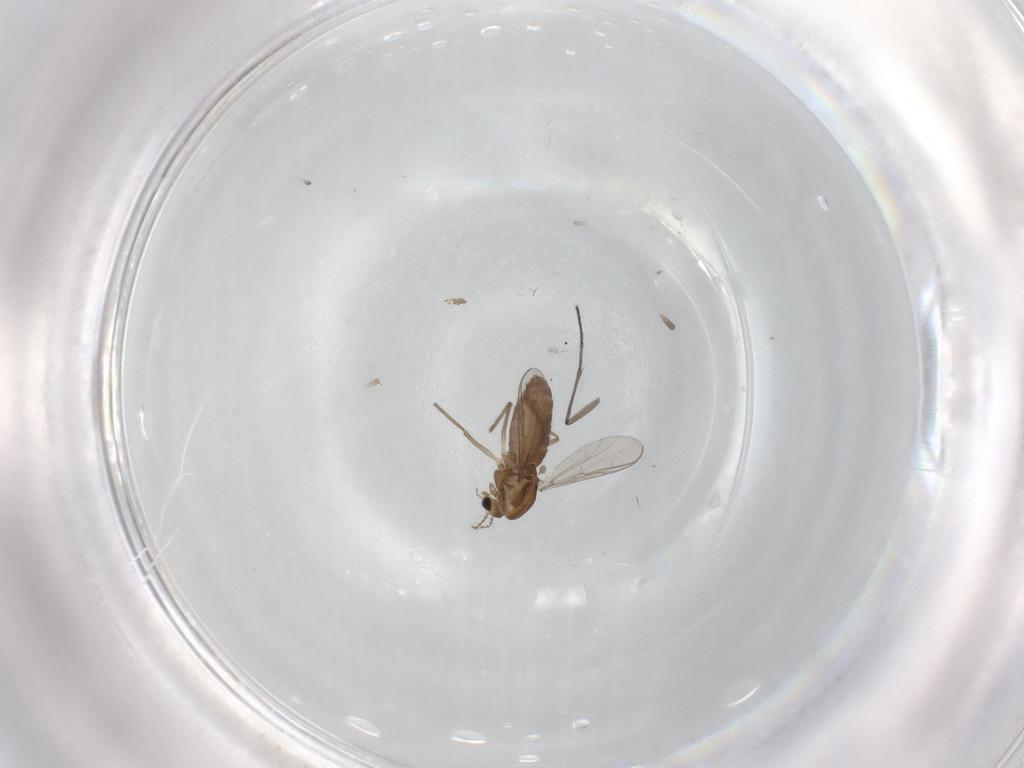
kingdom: Animalia
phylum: Arthropoda
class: Insecta
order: Diptera
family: Chironomidae
